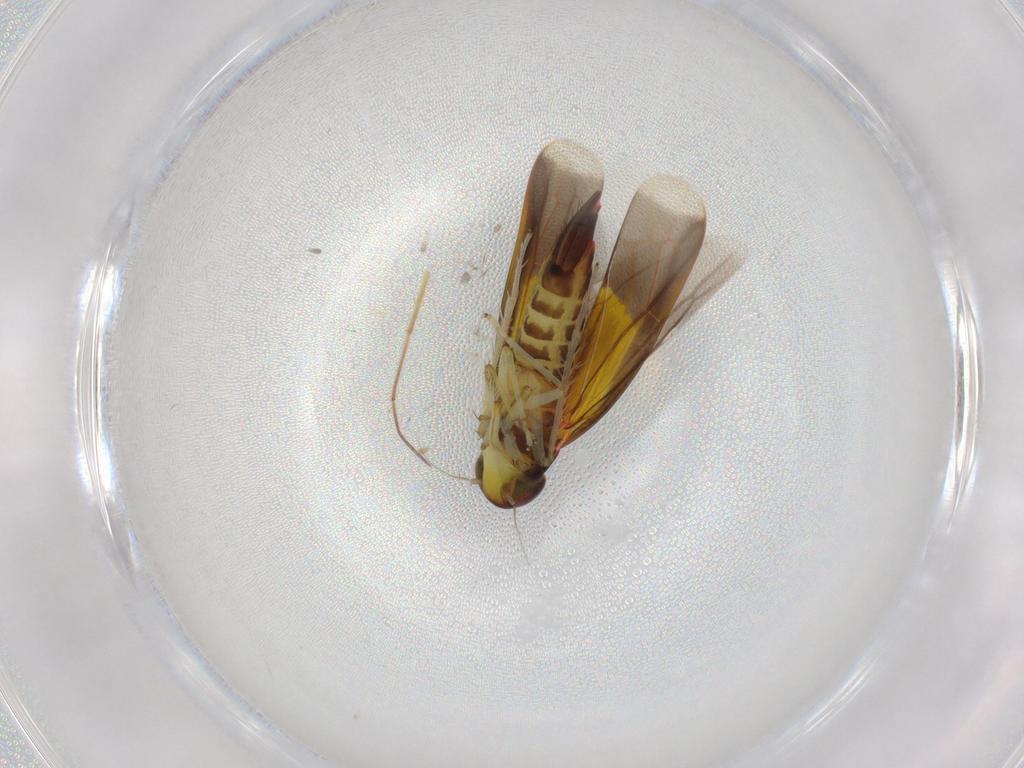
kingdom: Animalia
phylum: Arthropoda
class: Insecta
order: Hemiptera
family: Cicadellidae
